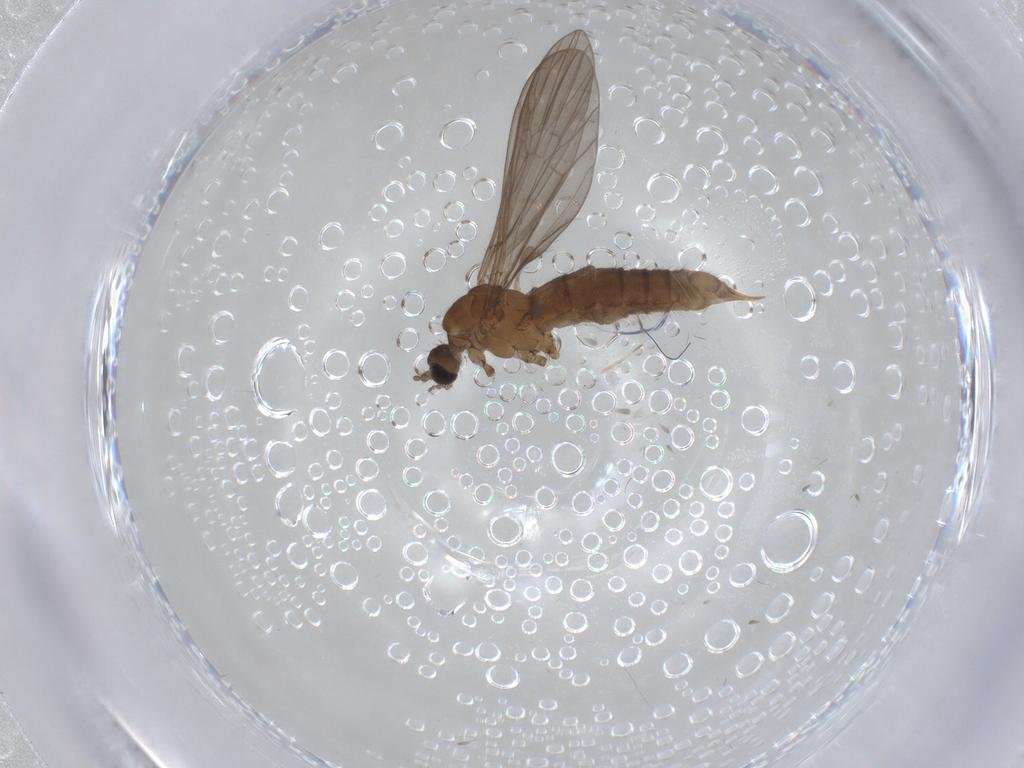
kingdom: Animalia
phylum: Arthropoda
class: Insecta
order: Diptera
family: Limoniidae
